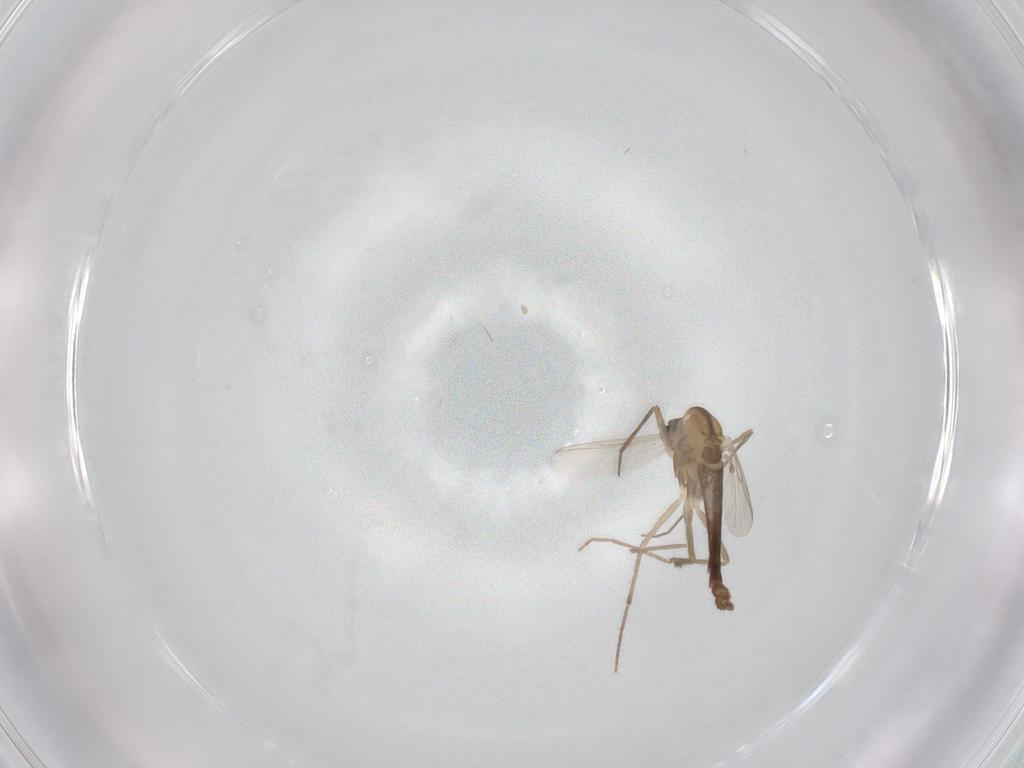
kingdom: Animalia
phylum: Arthropoda
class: Insecta
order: Diptera
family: Chironomidae
